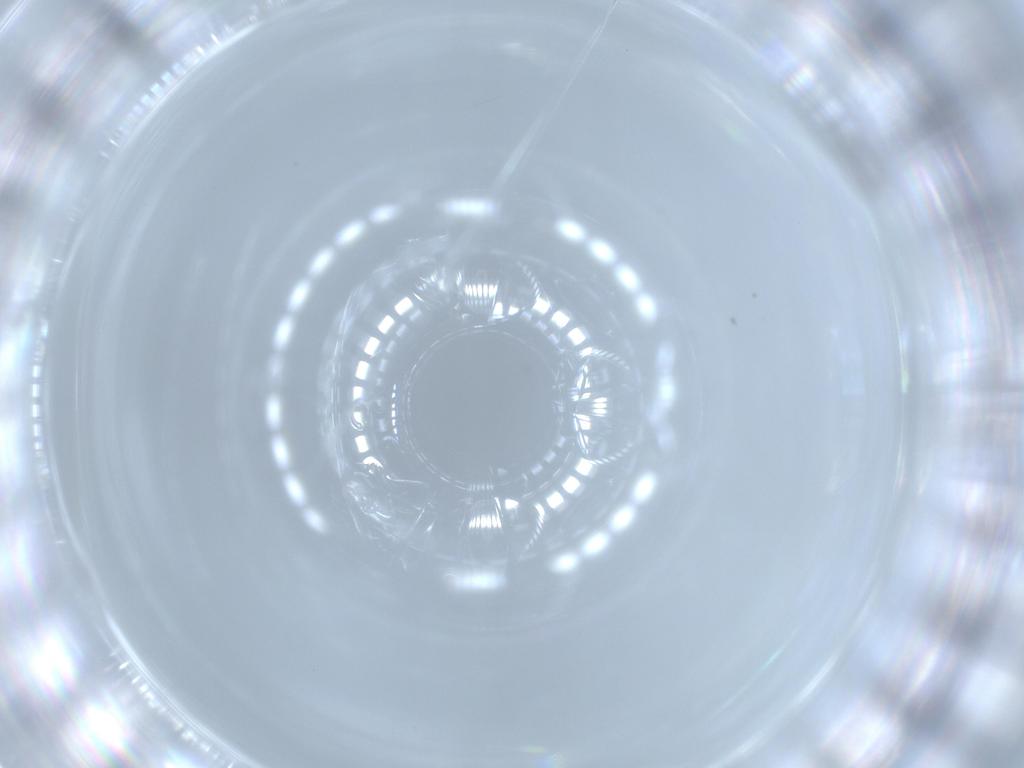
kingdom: Animalia
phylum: Arthropoda
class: Insecta
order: Diptera
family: Sciaridae
